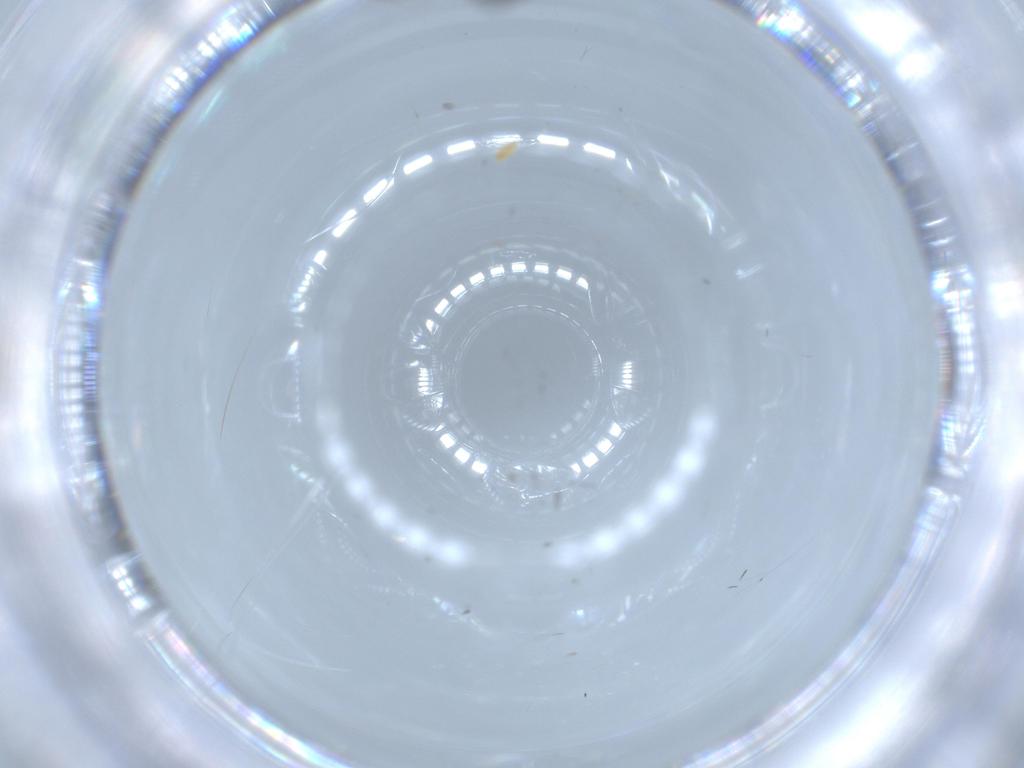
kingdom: Animalia
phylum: Arthropoda
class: Insecta
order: Hymenoptera
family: Formicidae
